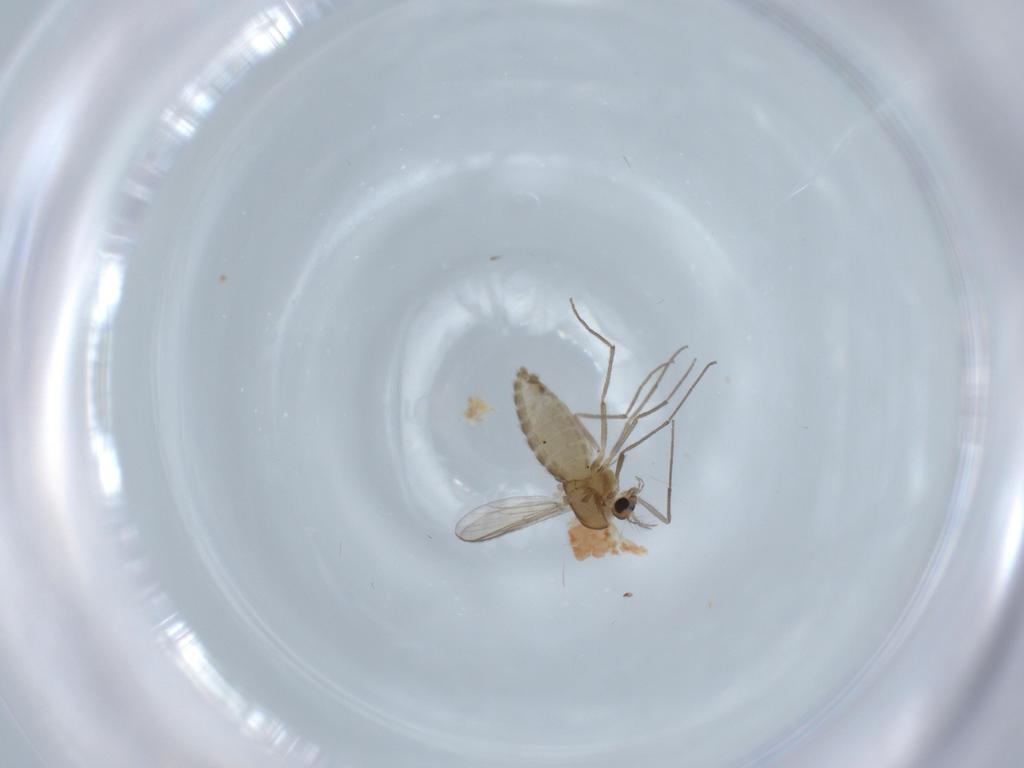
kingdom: Animalia
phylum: Arthropoda
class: Insecta
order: Diptera
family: Chironomidae
